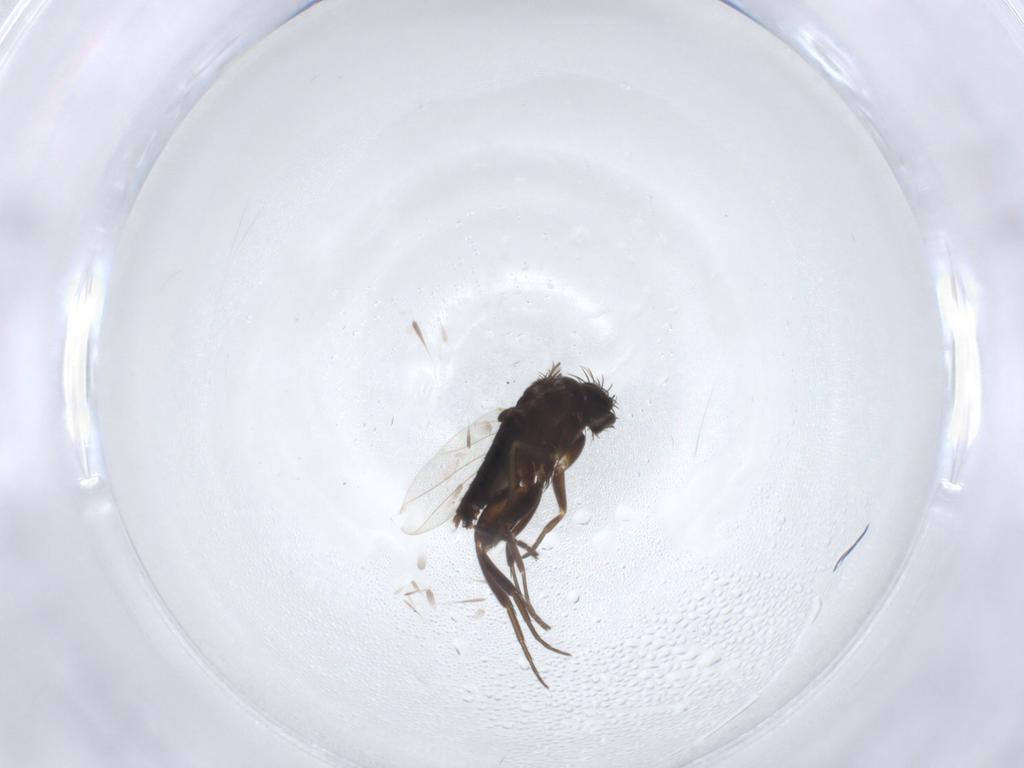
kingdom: Animalia
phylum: Arthropoda
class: Insecta
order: Diptera
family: Phoridae
